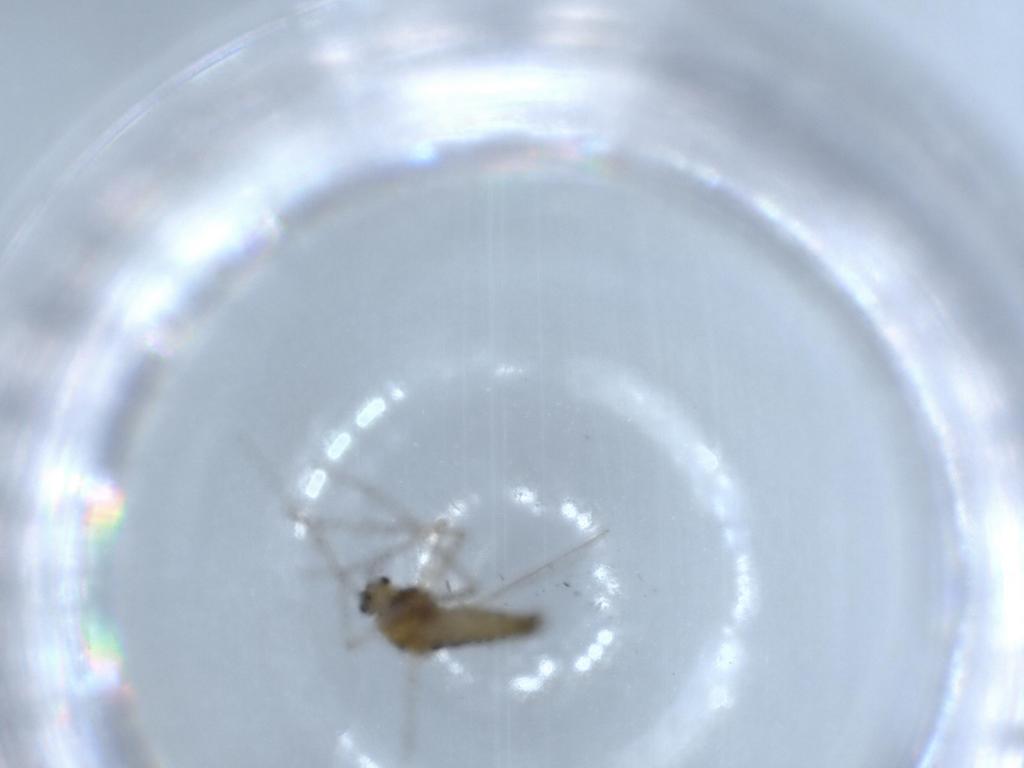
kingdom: Animalia
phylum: Arthropoda
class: Insecta
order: Diptera
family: Chironomidae
